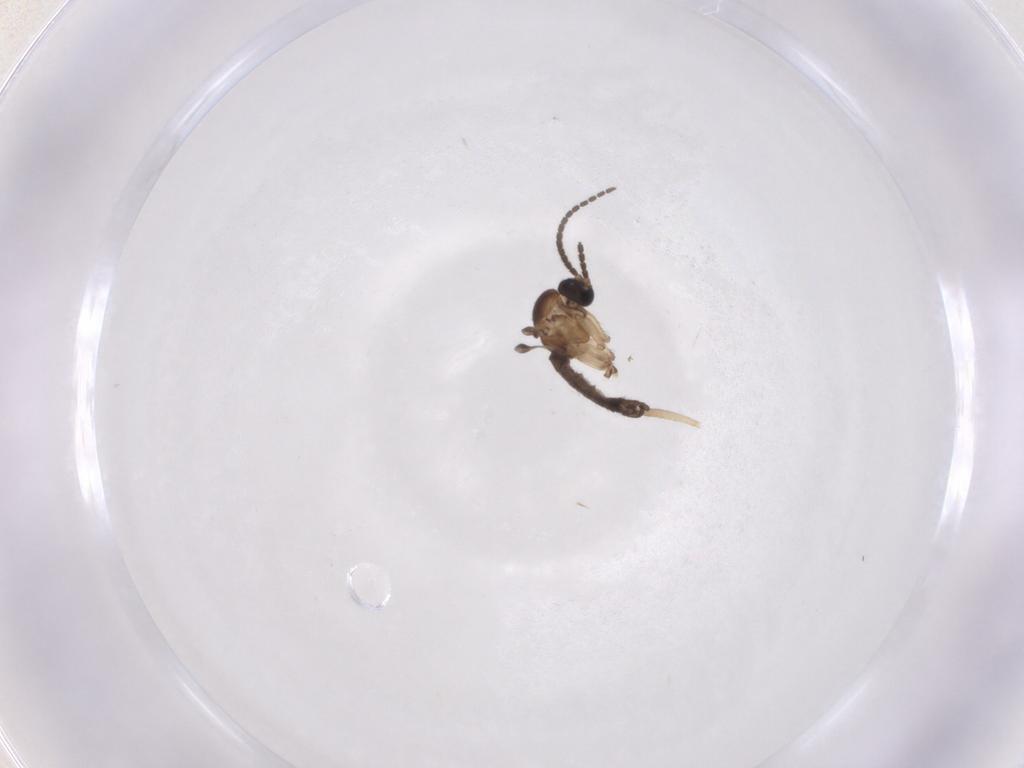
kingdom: Animalia
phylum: Arthropoda
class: Insecta
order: Diptera
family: Sciaridae
